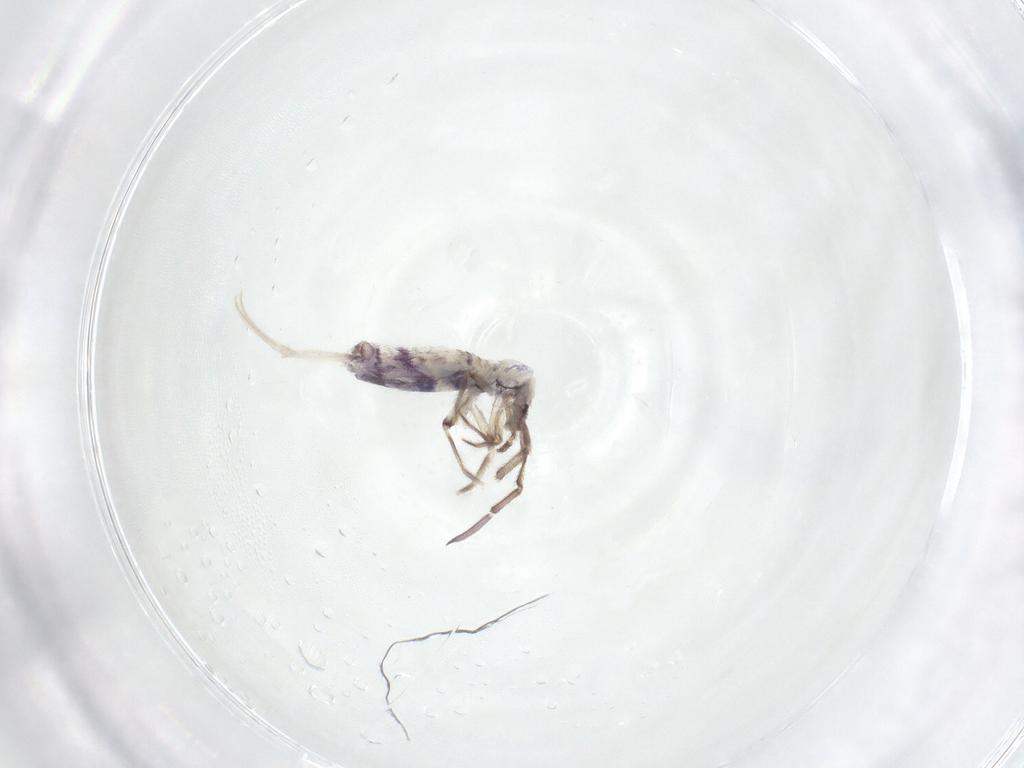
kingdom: Animalia
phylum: Arthropoda
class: Collembola
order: Entomobryomorpha
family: Entomobryidae
